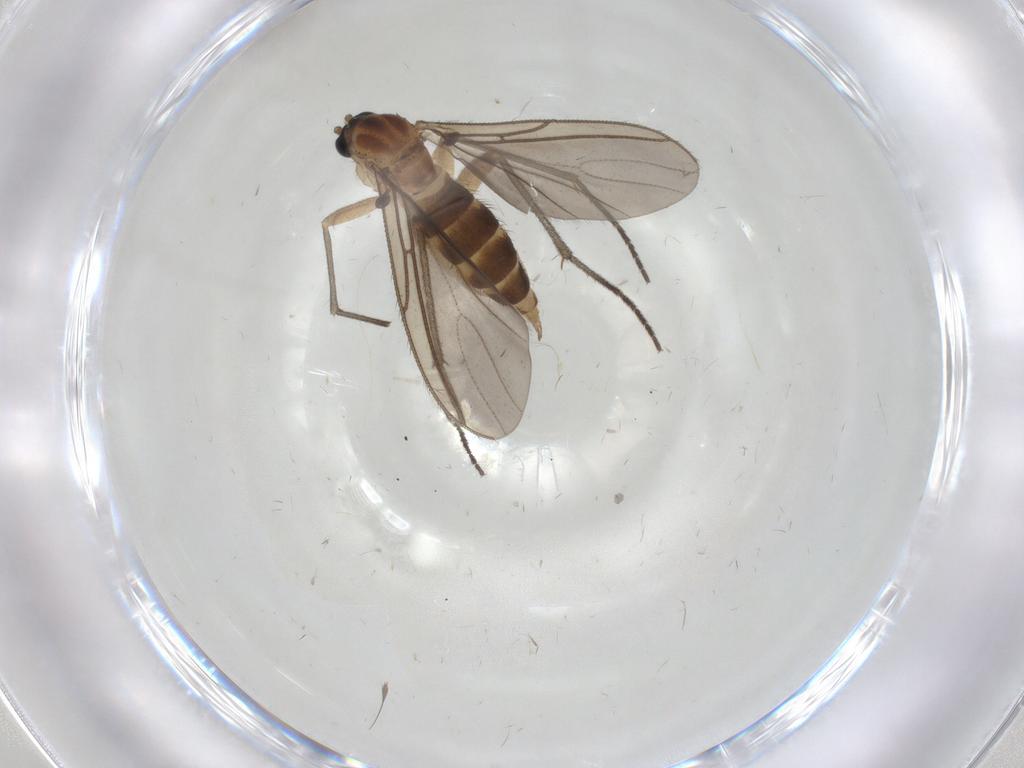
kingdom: Animalia
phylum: Arthropoda
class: Insecta
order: Diptera
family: Sciaridae
